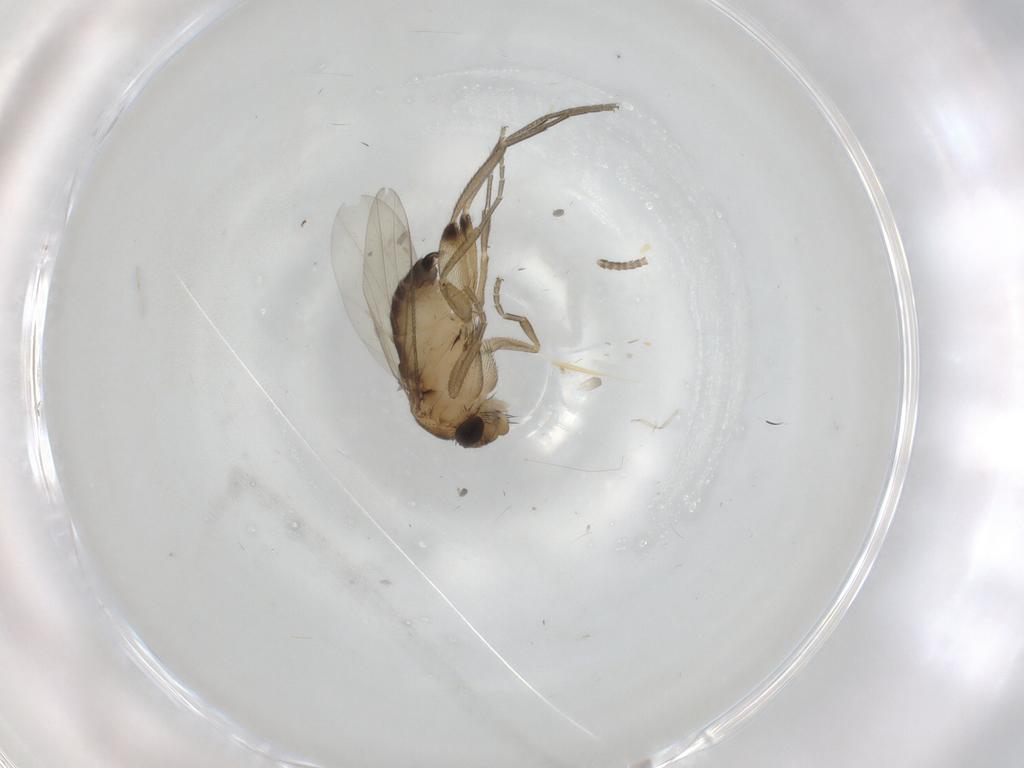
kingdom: Animalia
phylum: Arthropoda
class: Insecta
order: Diptera
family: Phoridae
